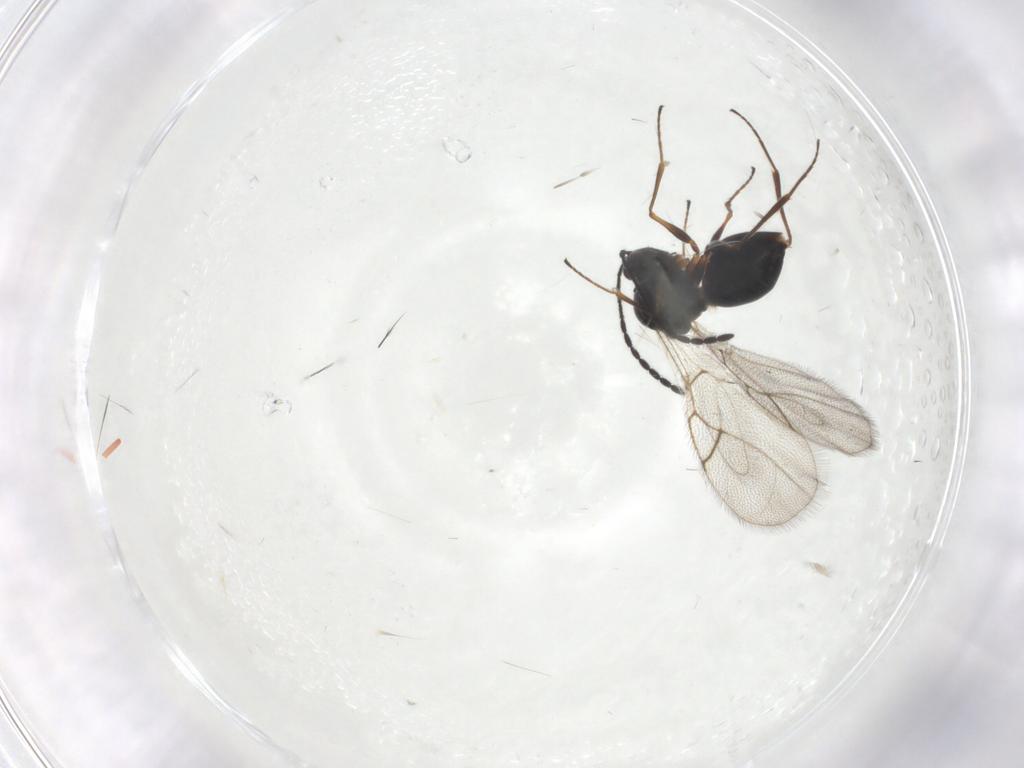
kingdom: Animalia
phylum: Arthropoda
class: Insecta
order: Hymenoptera
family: Figitidae
